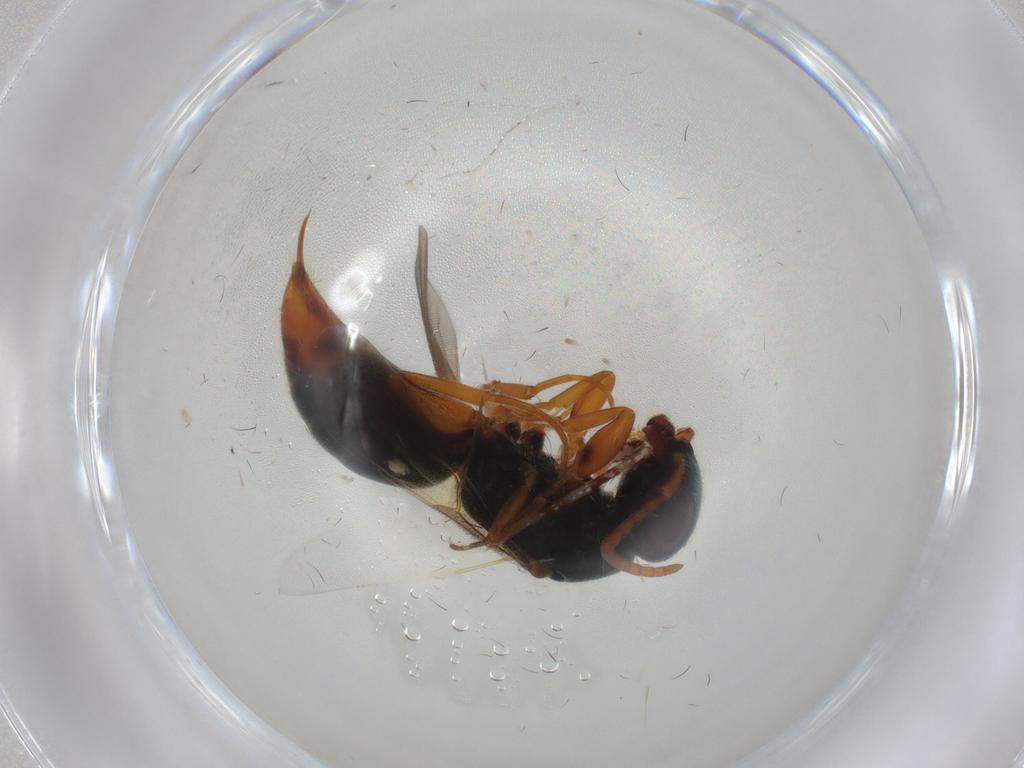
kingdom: Animalia
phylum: Arthropoda
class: Insecta
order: Hymenoptera
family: Bethylidae
